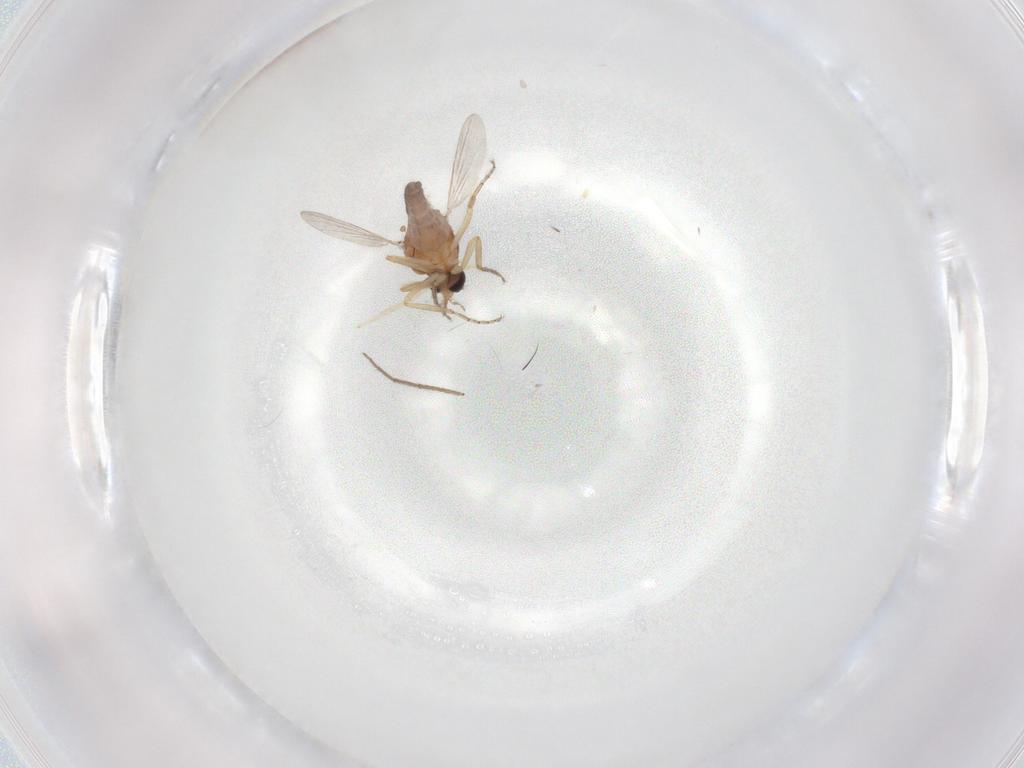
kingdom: Animalia
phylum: Arthropoda
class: Insecta
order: Diptera
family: Ceratopogonidae
